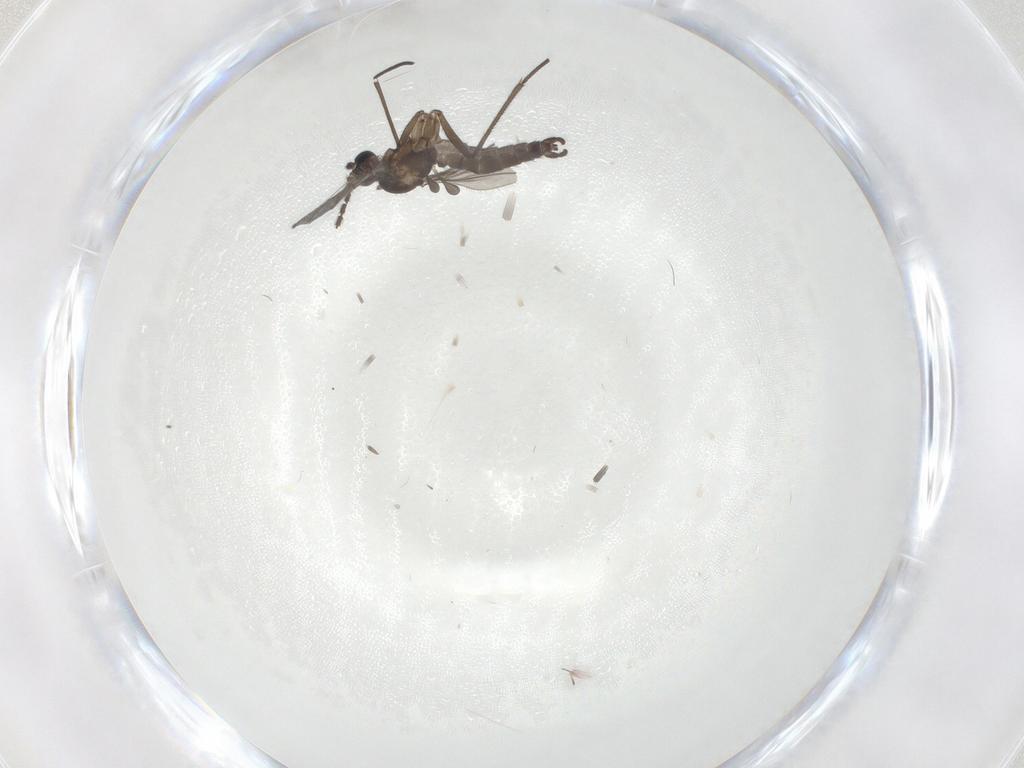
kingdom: Animalia
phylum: Arthropoda
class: Insecta
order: Diptera
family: Sciaridae
